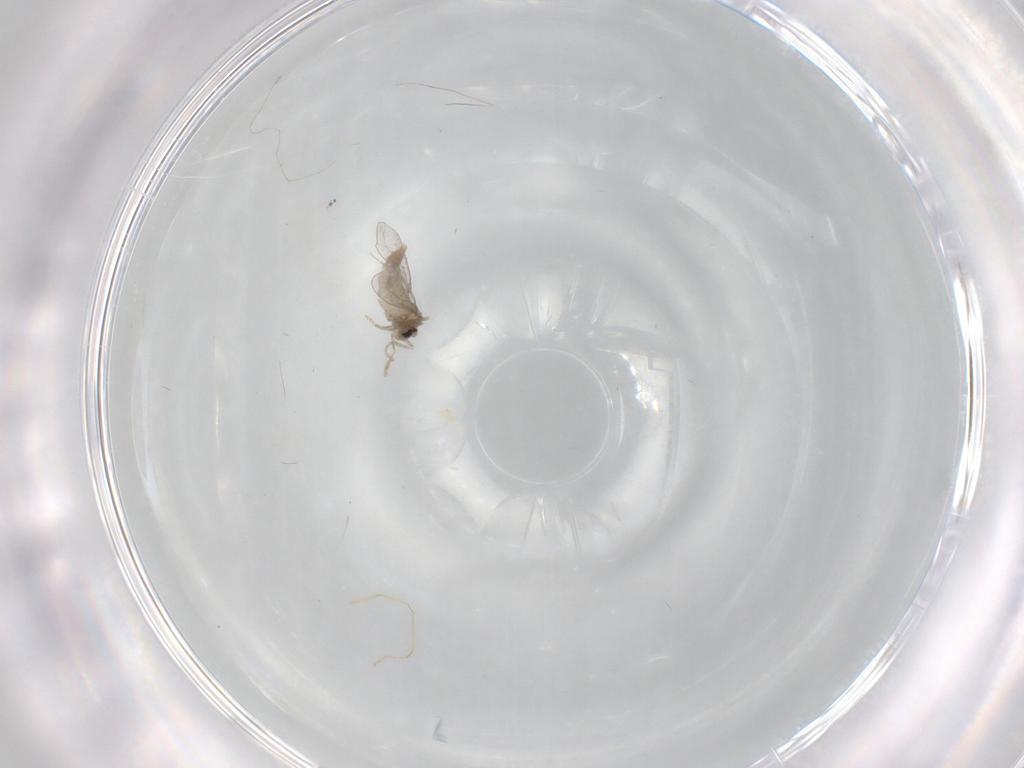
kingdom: Animalia
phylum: Arthropoda
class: Insecta
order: Diptera
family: Cecidomyiidae
